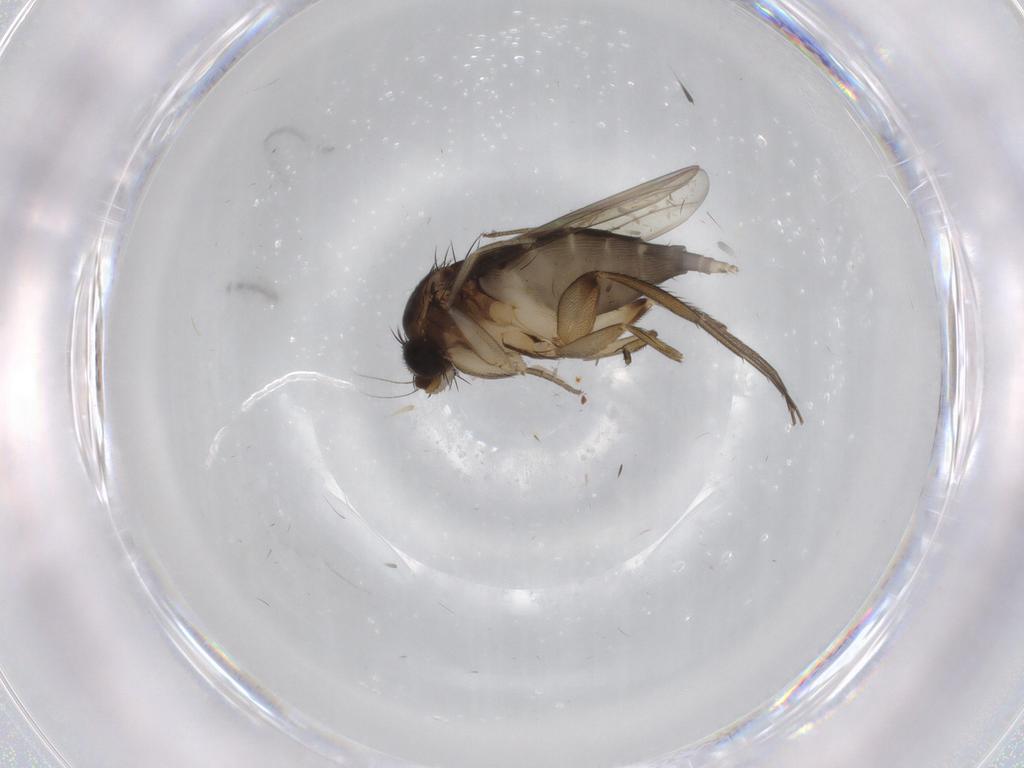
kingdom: Animalia
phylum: Arthropoda
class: Insecta
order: Diptera
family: Phoridae
